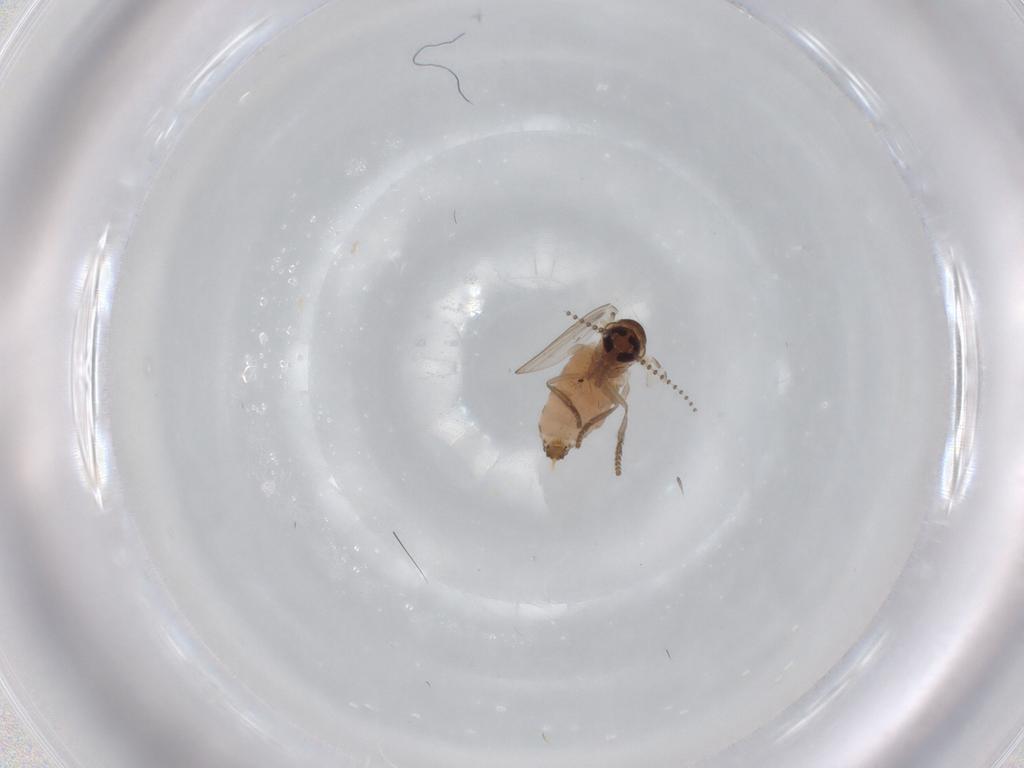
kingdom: Animalia
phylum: Arthropoda
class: Insecta
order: Diptera
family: Psychodidae
